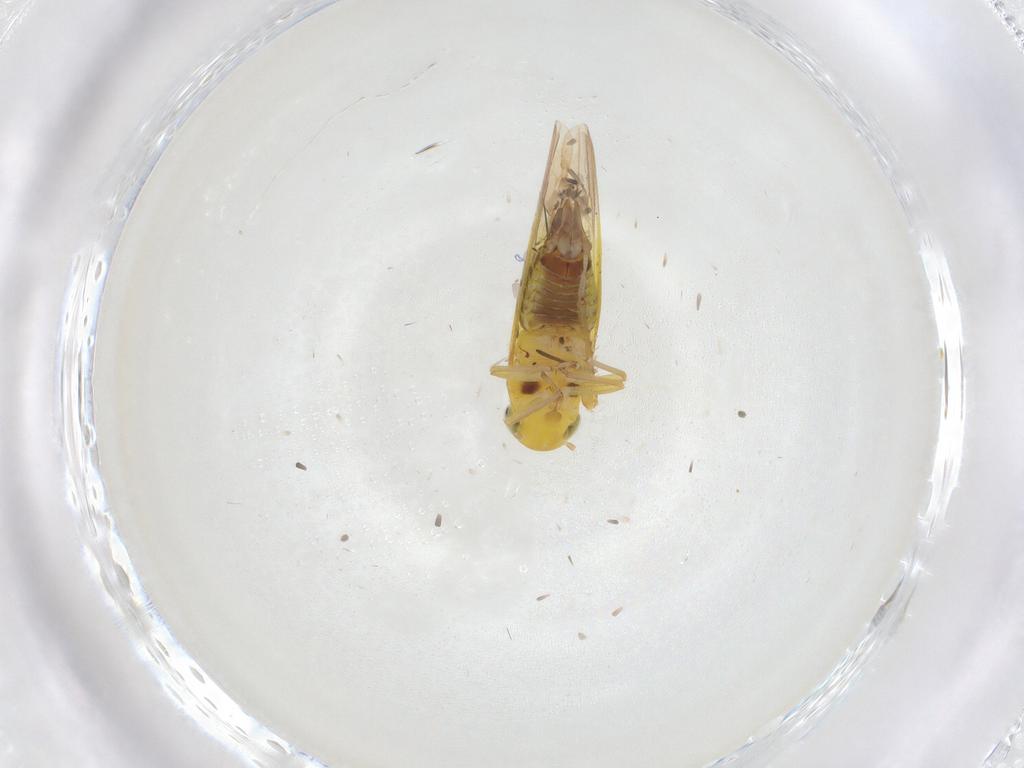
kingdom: Animalia
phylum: Arthropoda
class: Insecta
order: Hemiptera
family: Cicadellidae
